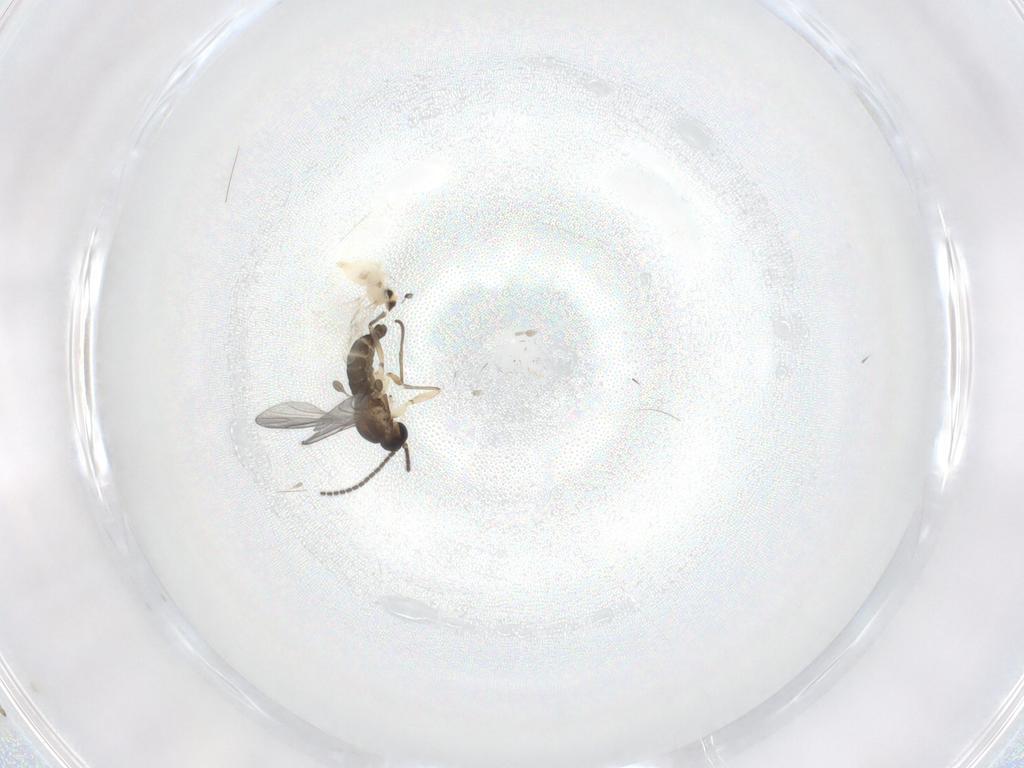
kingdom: Animalia
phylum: Arthropoda
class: Insecta
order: Diptera
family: Sciaridae
